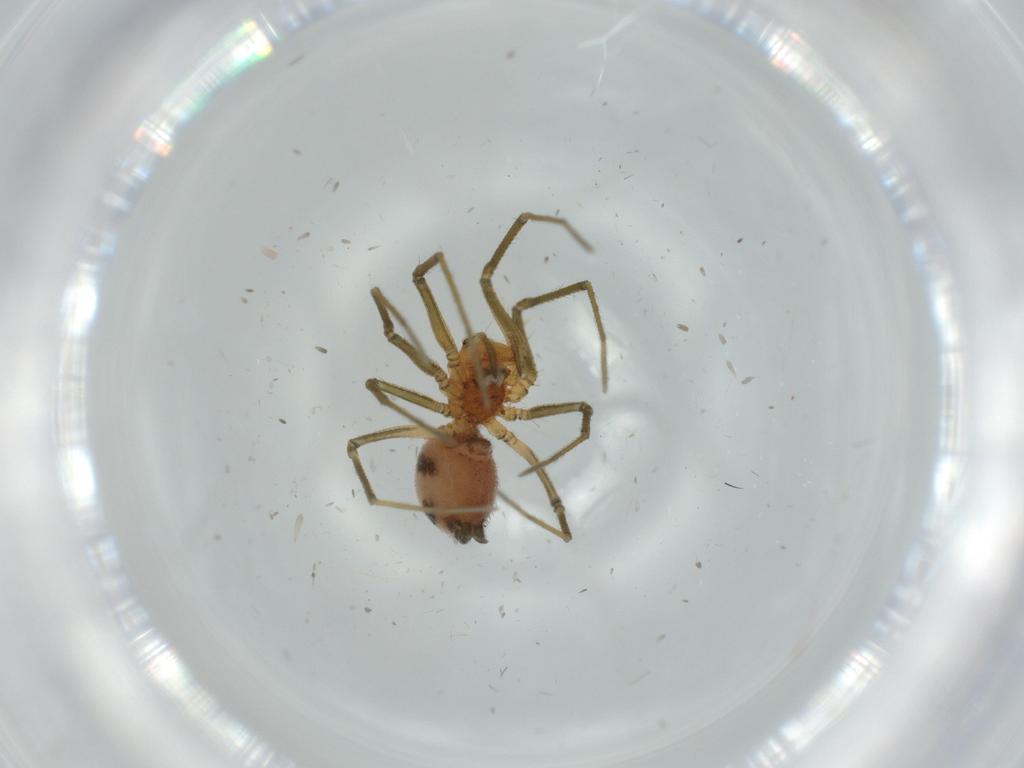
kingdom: Animalia
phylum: Arthropoda
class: Arachnida
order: Araneae
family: Linyphiidae
